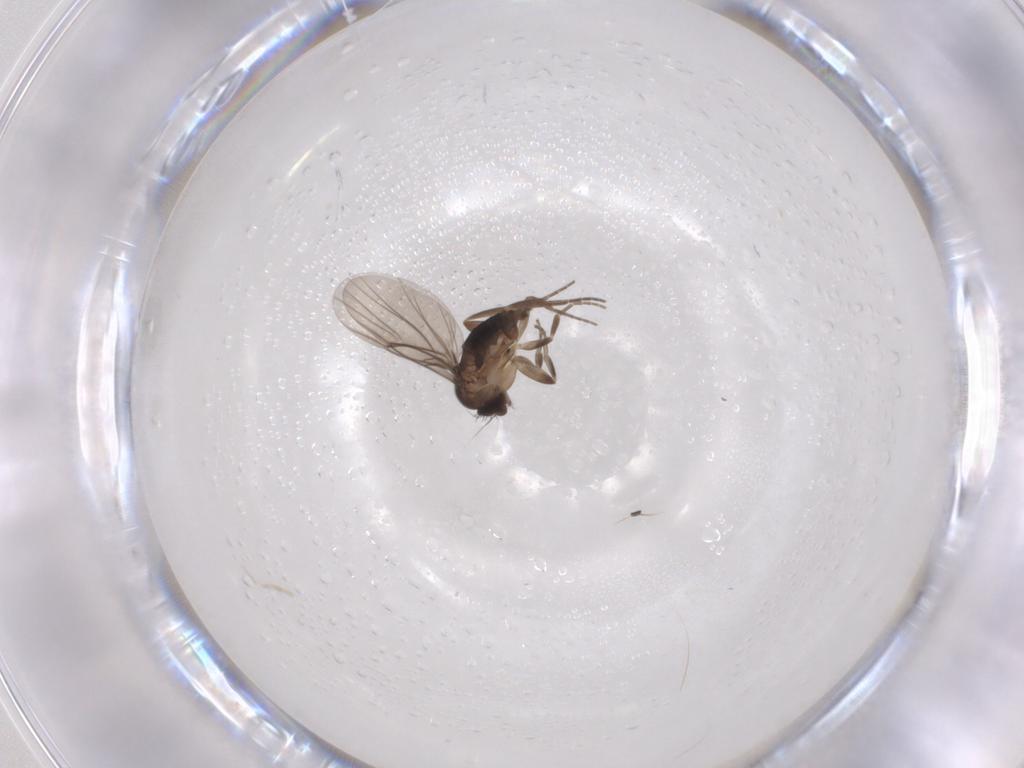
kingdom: Animalia
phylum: Arthropoda
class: Insecta
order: Diptera
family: Phoridae
